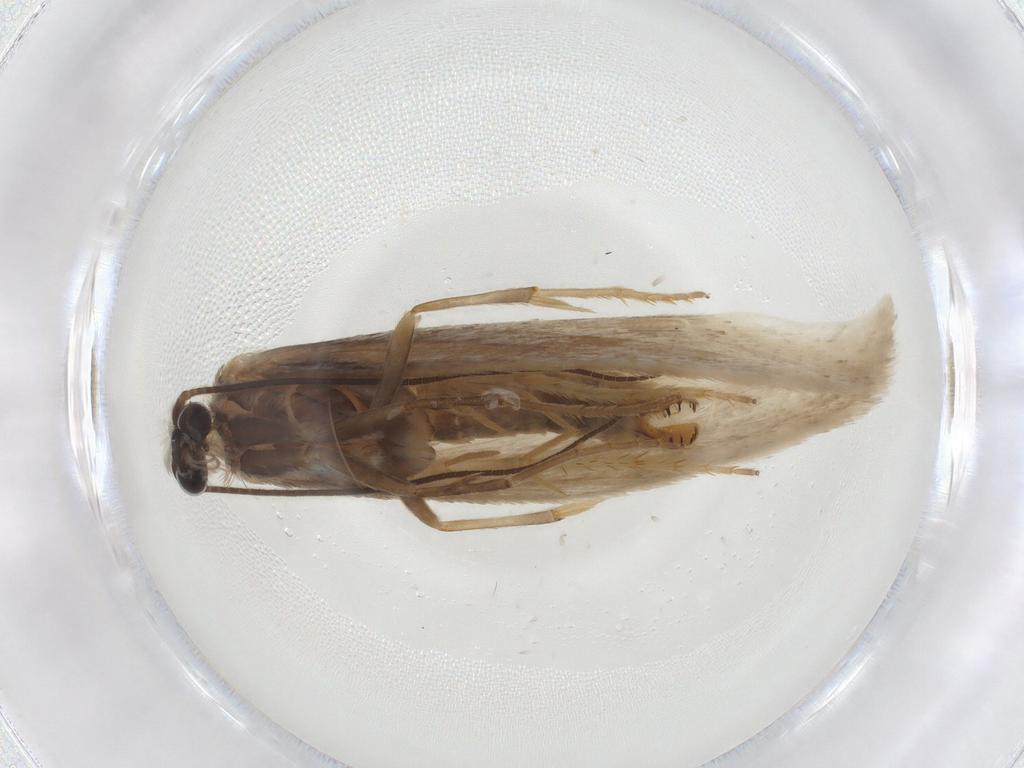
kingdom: Animalia
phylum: Arthropoda
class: Insecta
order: Lepidoptera
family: Tridentaformidae
